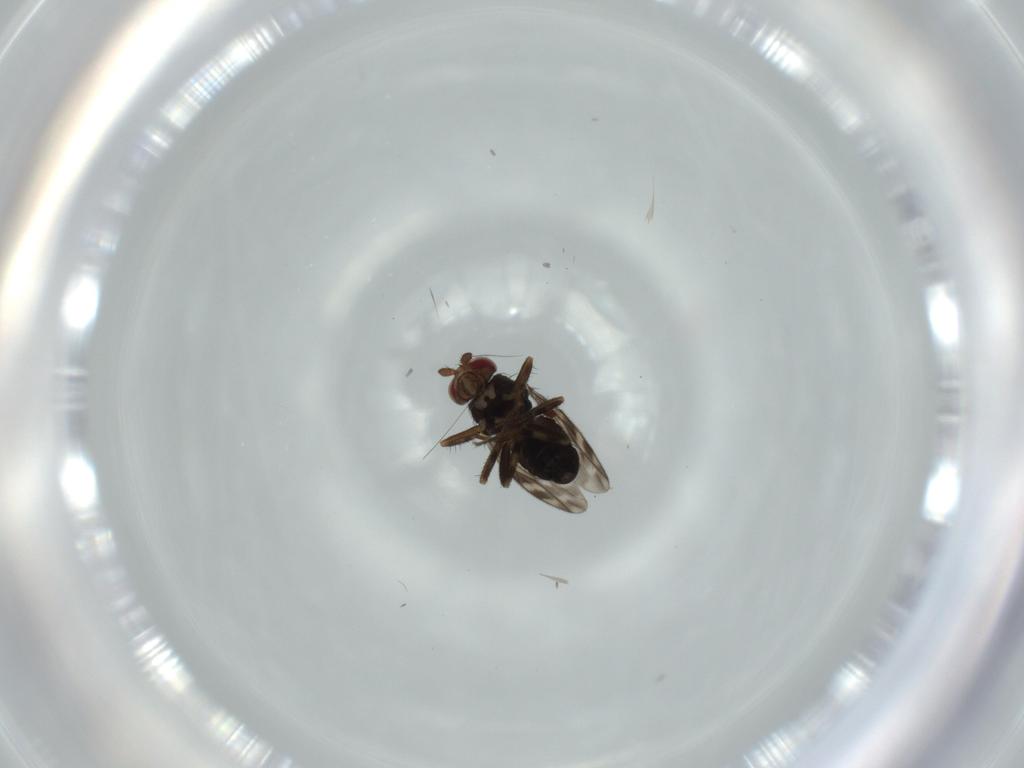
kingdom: Animalia
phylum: Arthropoda
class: Insecta
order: Diptera
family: Sphaeroceridae
